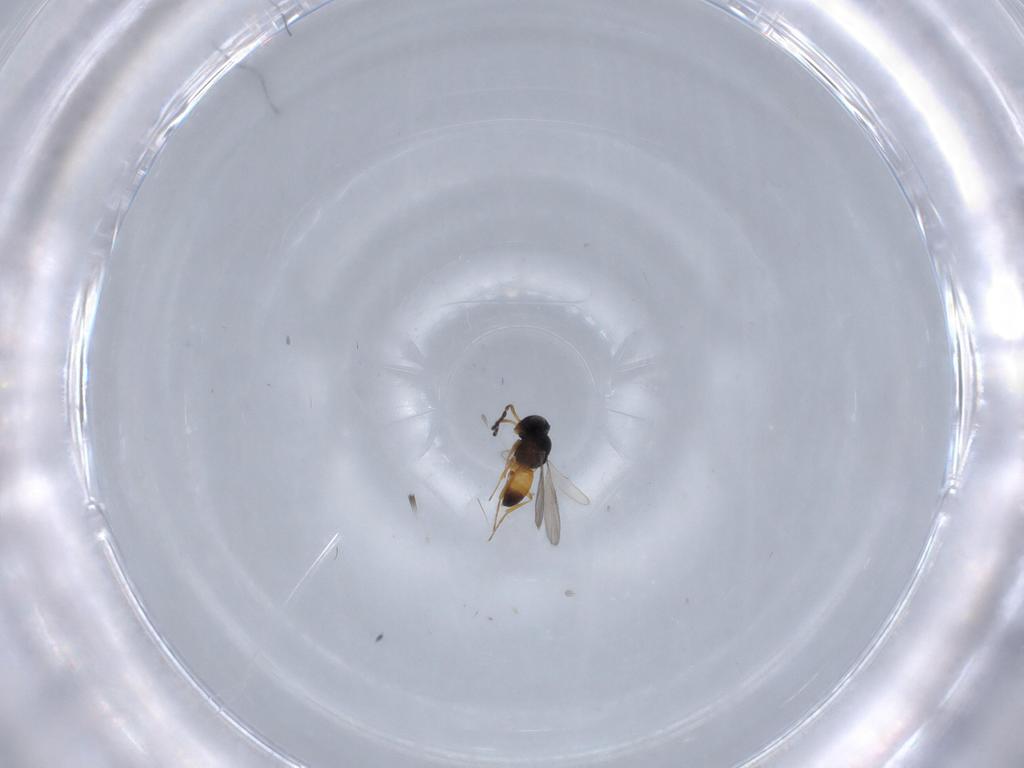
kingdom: Animalia
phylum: Arthropoda
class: Insecta
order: Hymenoptera
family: Scelionidae
